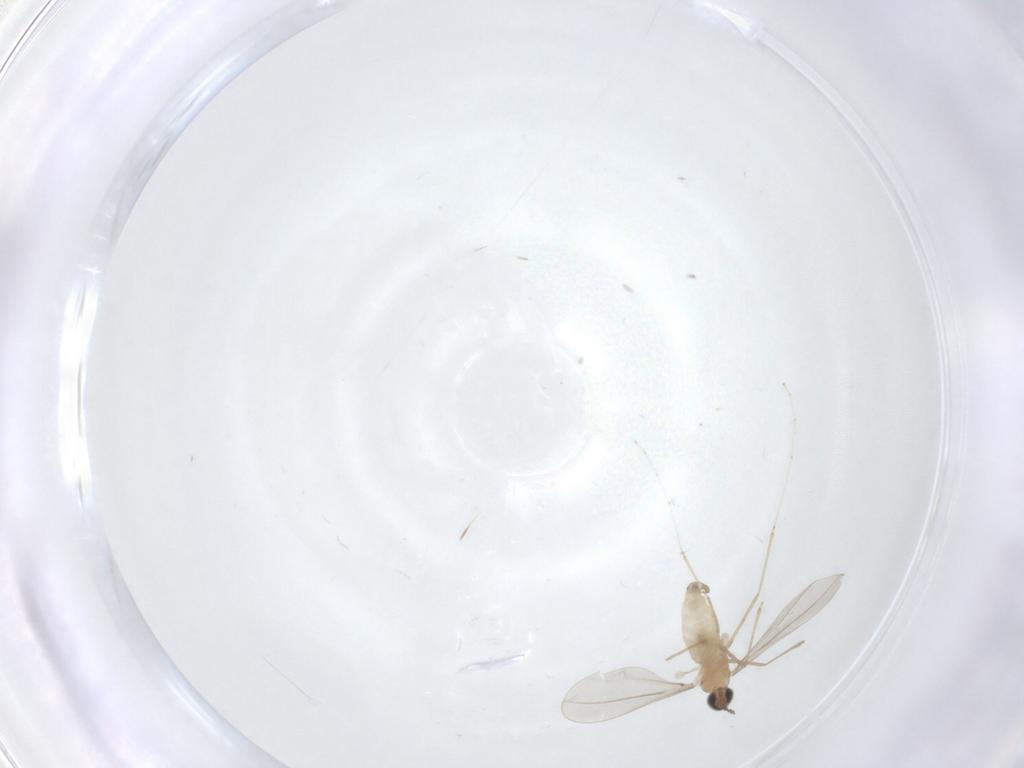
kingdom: Animalia
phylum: Arthropoda
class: Insecta
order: Diptera
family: Cecidomyiidae
